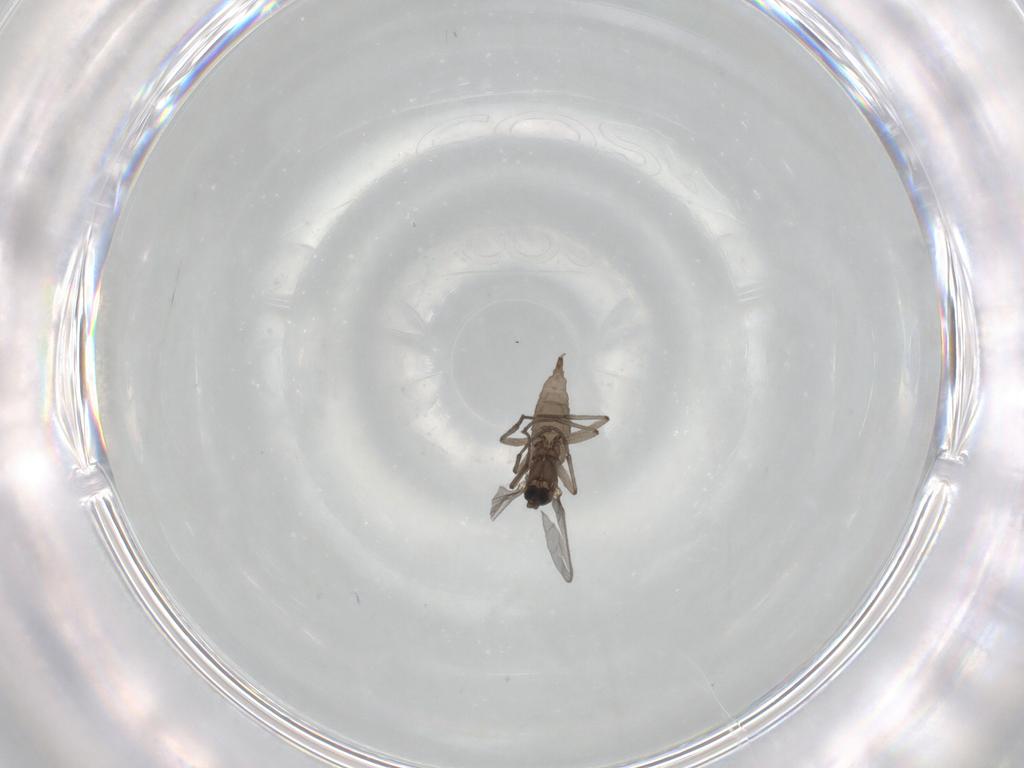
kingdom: Animalia
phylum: Arthropoda
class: Insecta
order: Diptera
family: Sciaridae
